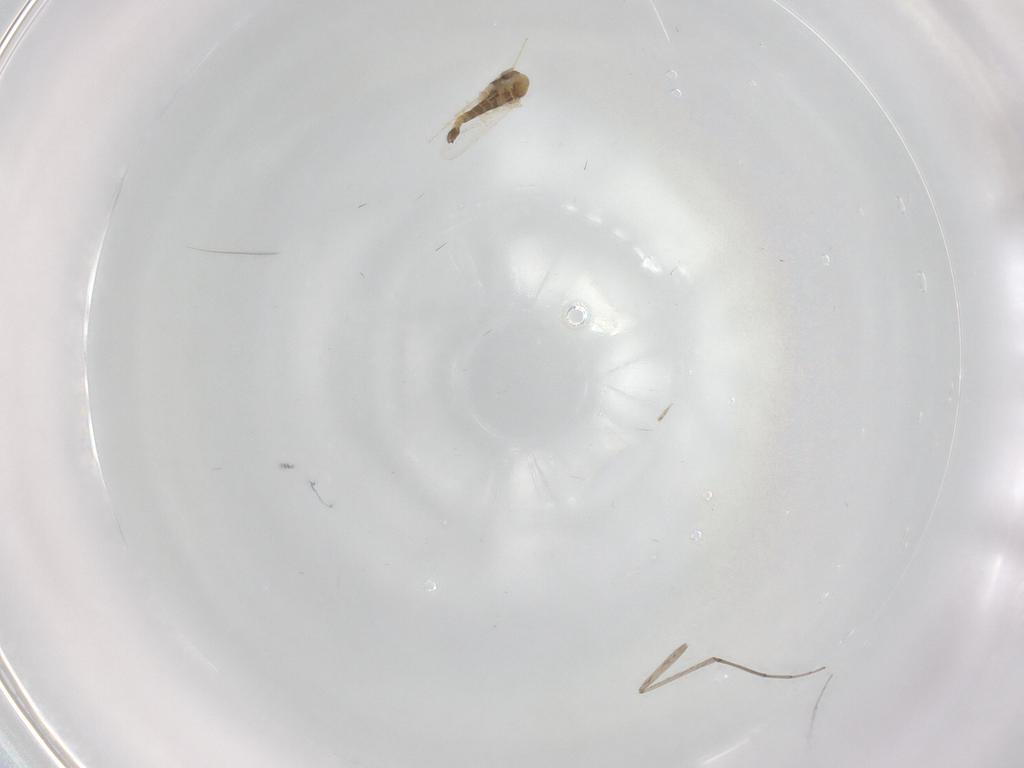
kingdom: Animalia
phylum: Arthropoda
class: Insecta
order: Diptera
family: Chironomidae
